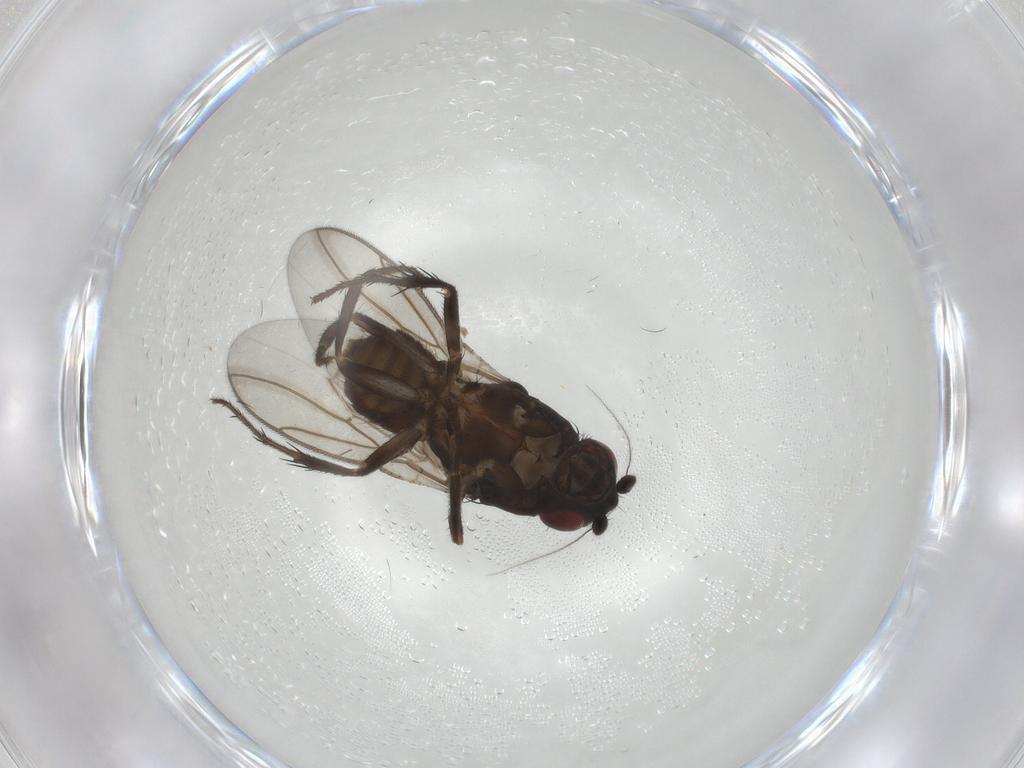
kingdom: Animalia
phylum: Arthropoda
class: Insecta
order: Diptera
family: Sphaeroceridae
